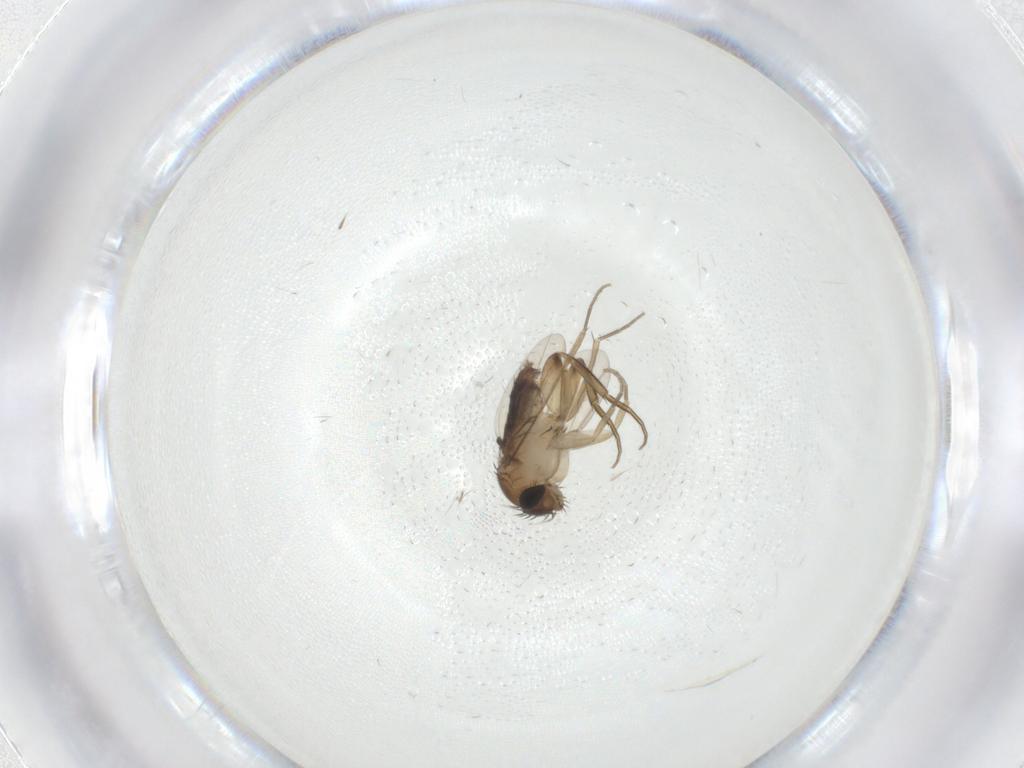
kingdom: Animalia
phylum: Arthropoda
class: Insecta
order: Diptera
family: Phoridae
